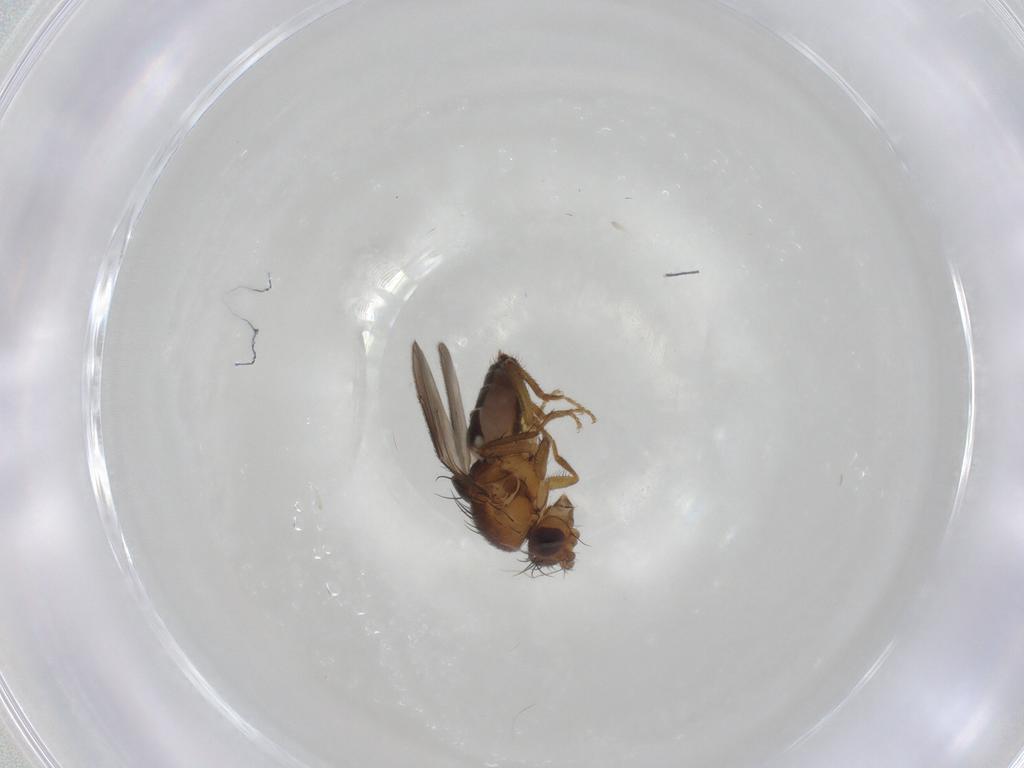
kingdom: Animalia
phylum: Arthropoda
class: Insecta
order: Diptera
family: Sphaeroceridae
